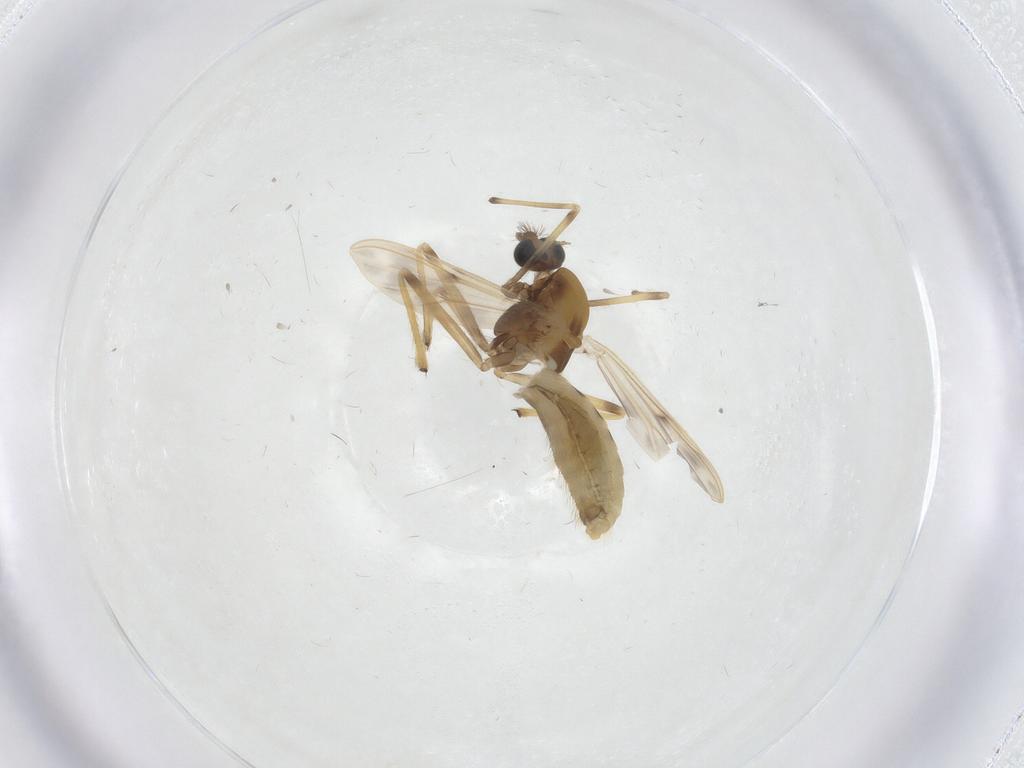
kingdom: Animalia
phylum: Arthropoda
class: Insecta
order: Diptera
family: Chironomidae
